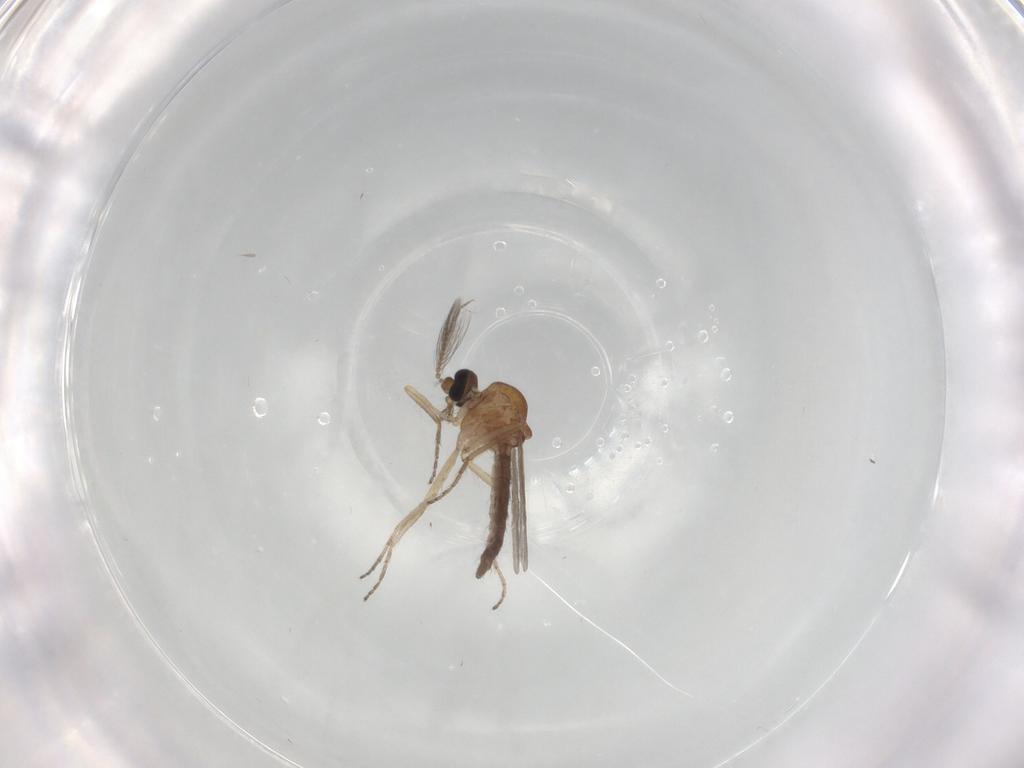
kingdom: Animalia
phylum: Arthropoda
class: Insecta
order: Diptera
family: Ceratopogonidae
